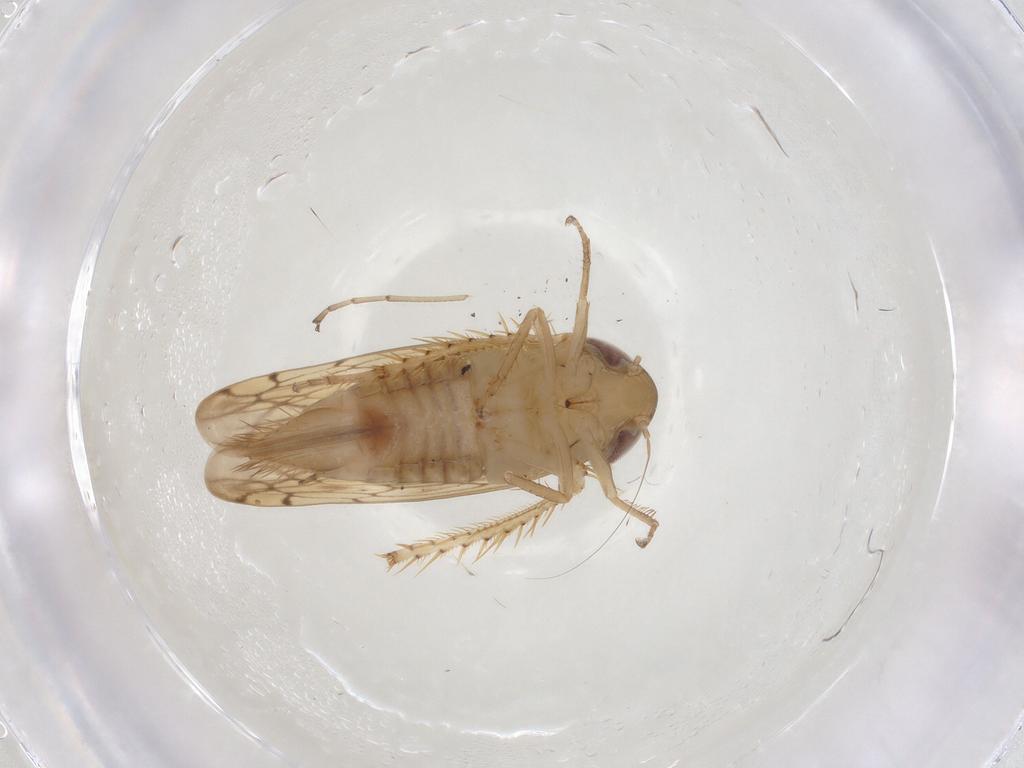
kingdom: Animalia
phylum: Arthropoda
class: Insecta
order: Hemiptera
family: Cicadellidae
